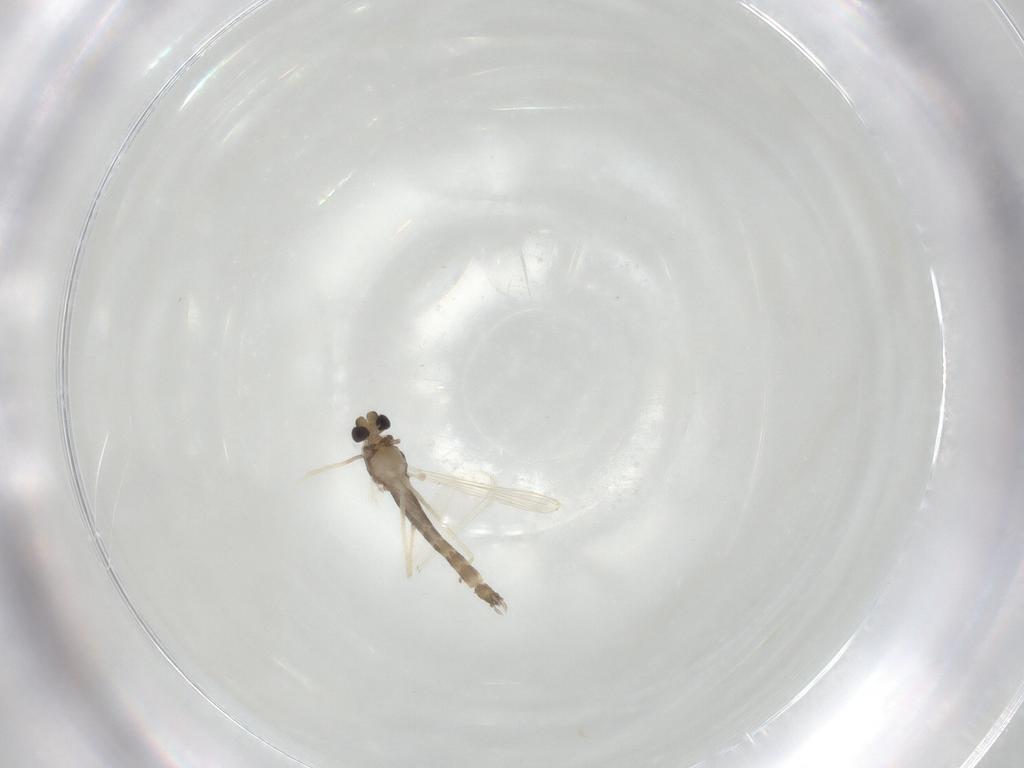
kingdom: Animalia
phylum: Arthropoda
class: Insecta
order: Diptera
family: Chironomidae
